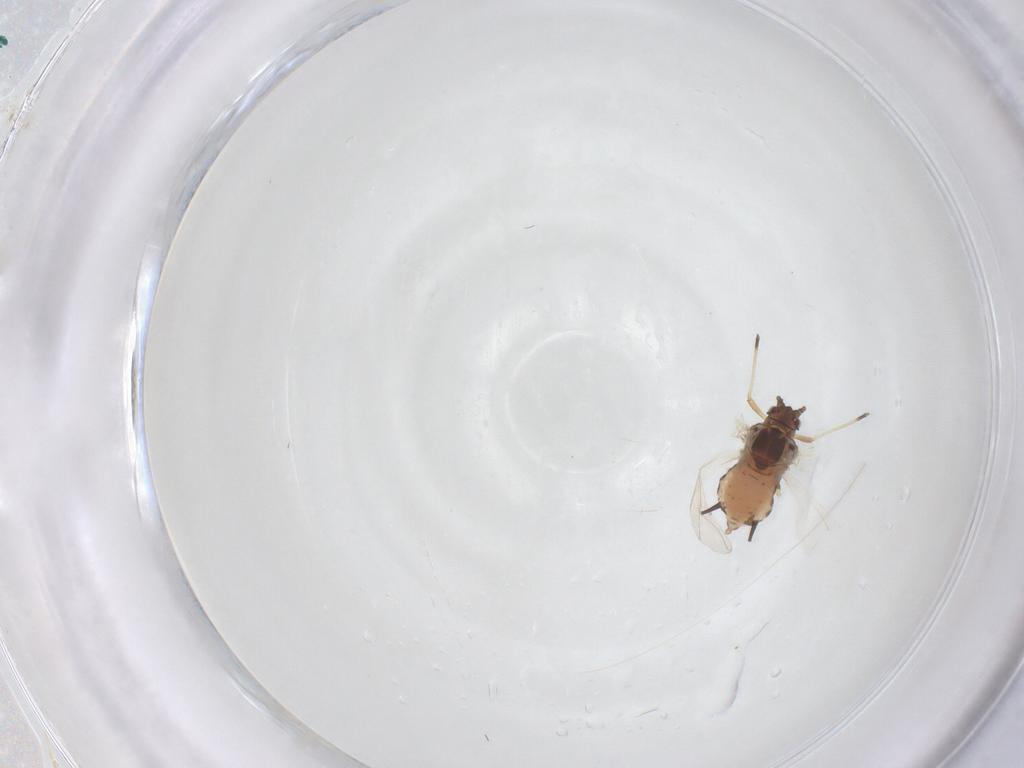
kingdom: Animalia
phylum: Arthropoda
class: Insecta
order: Hemiptera
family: Aphididae
